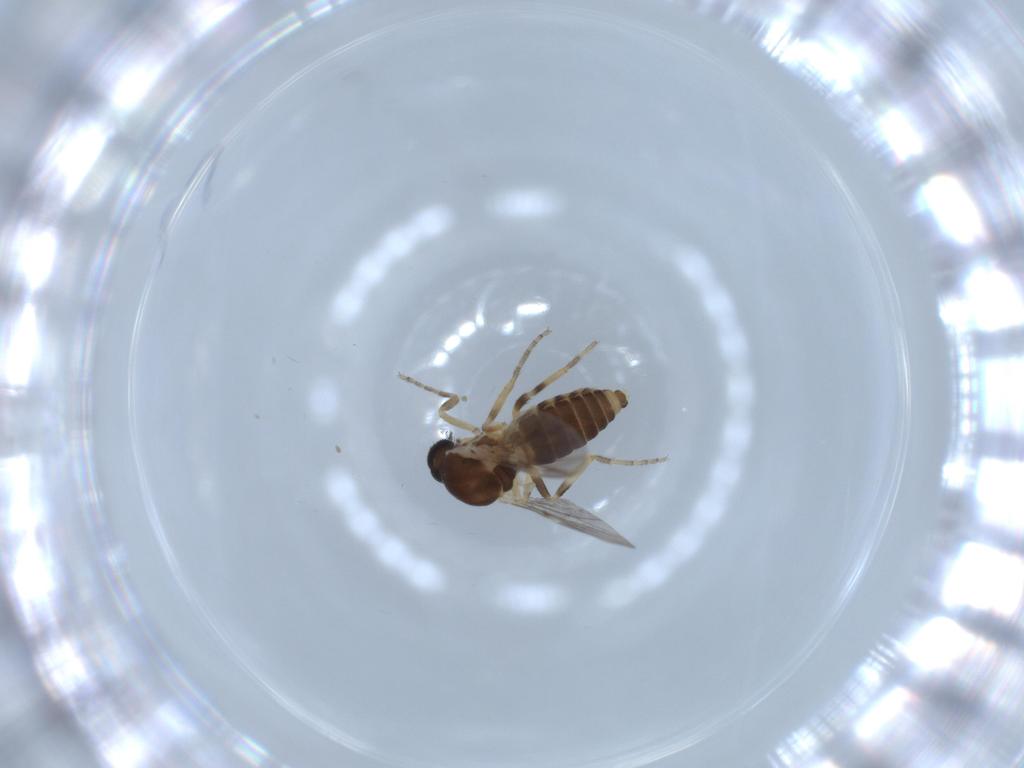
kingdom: Animalia
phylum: Arthropoda
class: Insecta
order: Diptera
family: Ceratopogonidae
